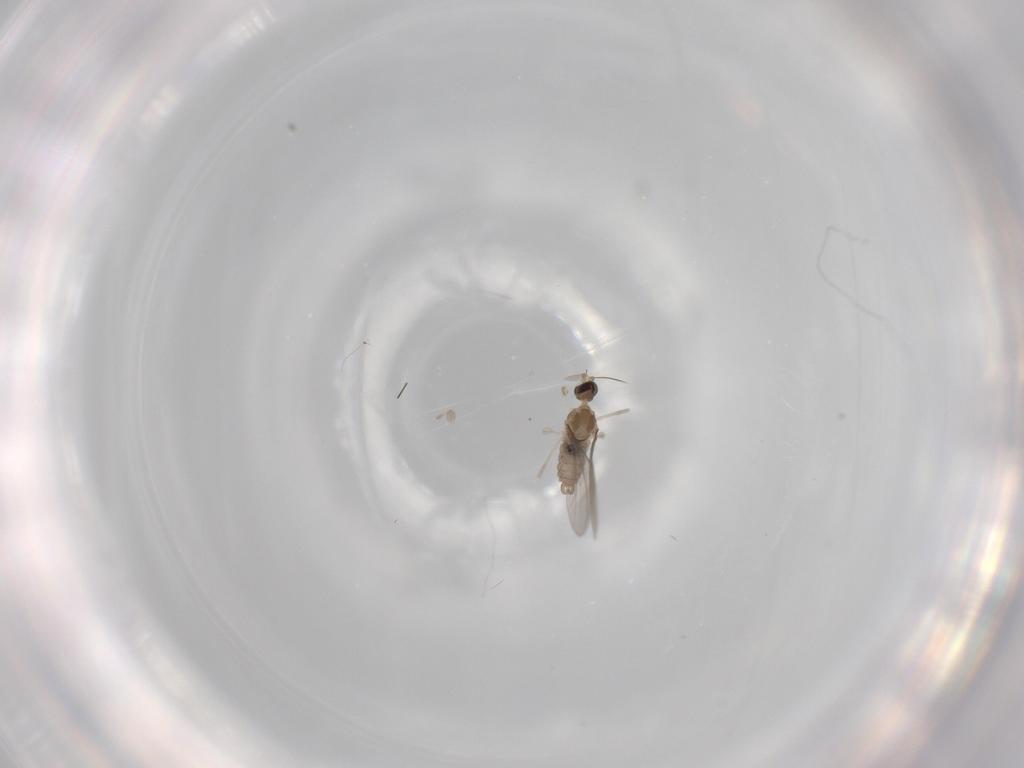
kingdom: Animalia
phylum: Arthropoda
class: Insecta
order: Diptera
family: Cecidomyiidae
